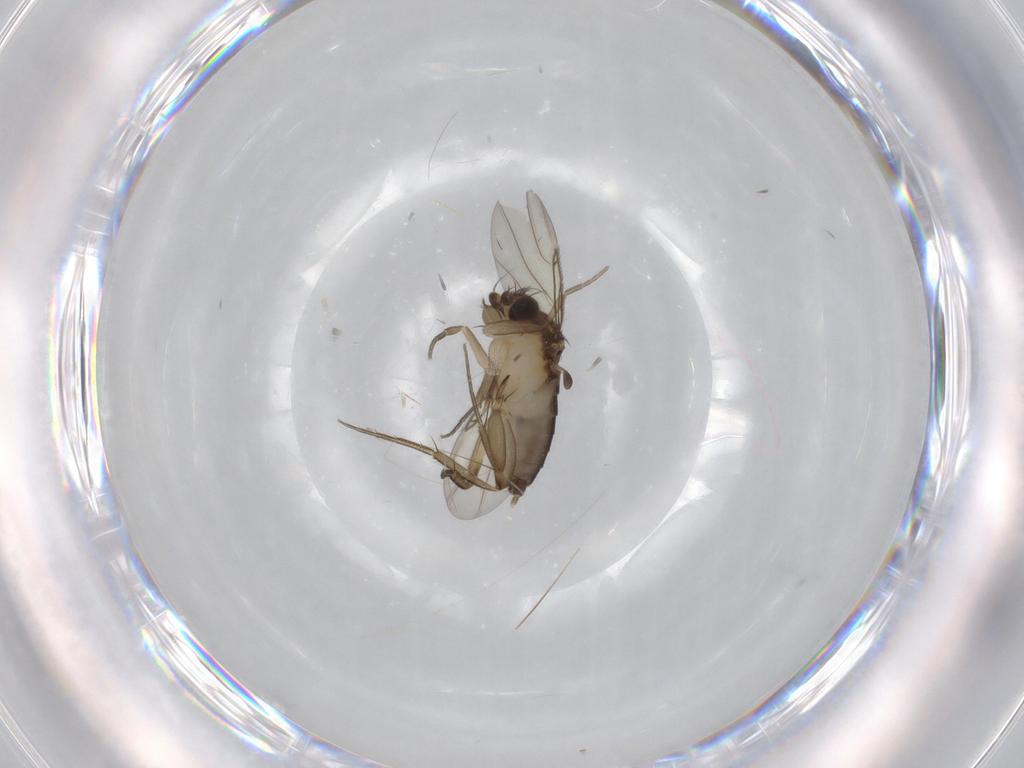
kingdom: Animalia
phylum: Arthropoda
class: Insecta
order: Diptera
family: Phoridae
